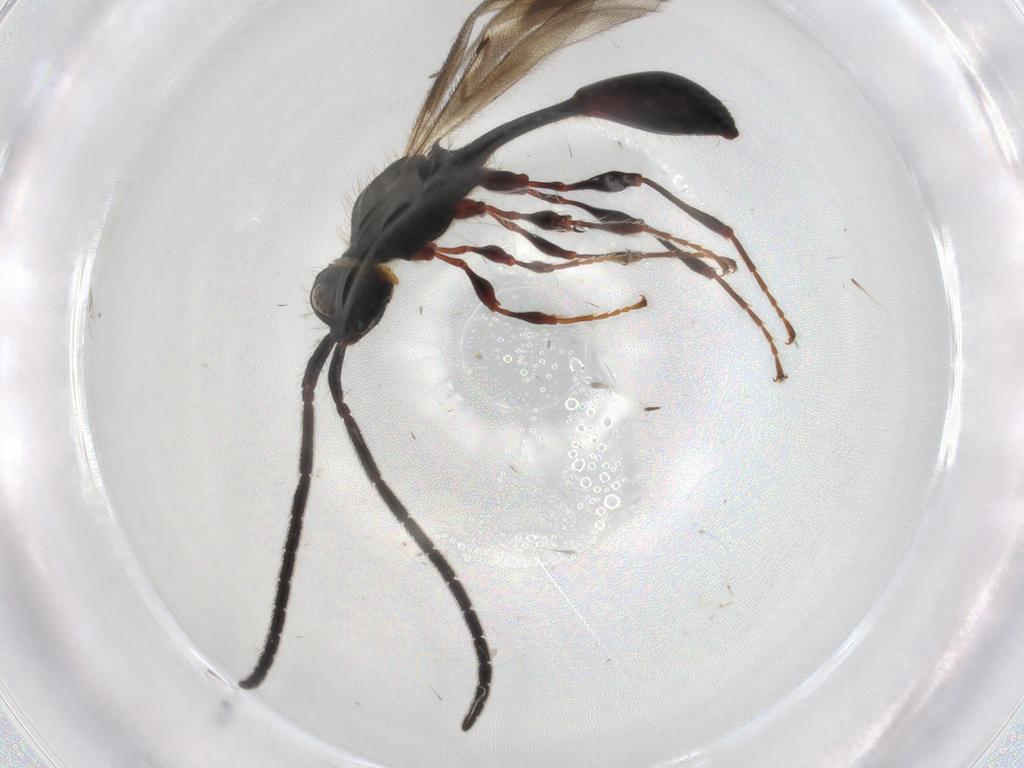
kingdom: Animalia
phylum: Arthropoda
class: Insecta
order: Hymenoptera
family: Diapriidae
